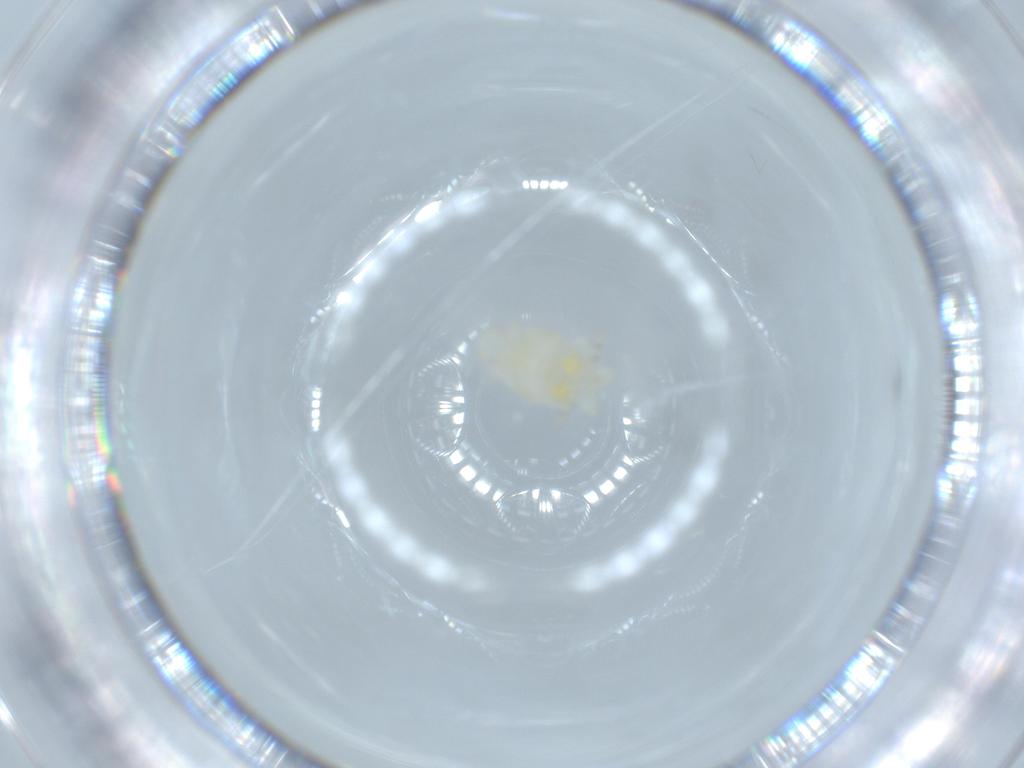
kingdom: Animalia
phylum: Arthropoda
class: Insecta
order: Hemiptera
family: Flatidae
